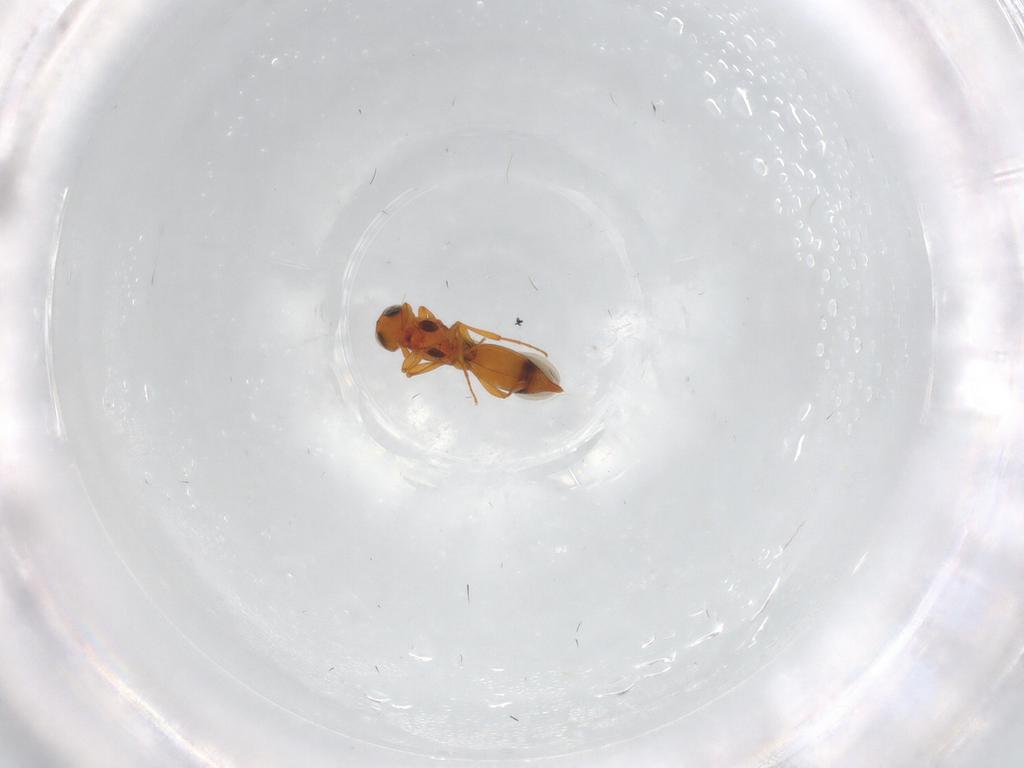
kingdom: Animalia
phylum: Arthropoda
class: Insecta
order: Hymenoptera
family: Platygastridae
